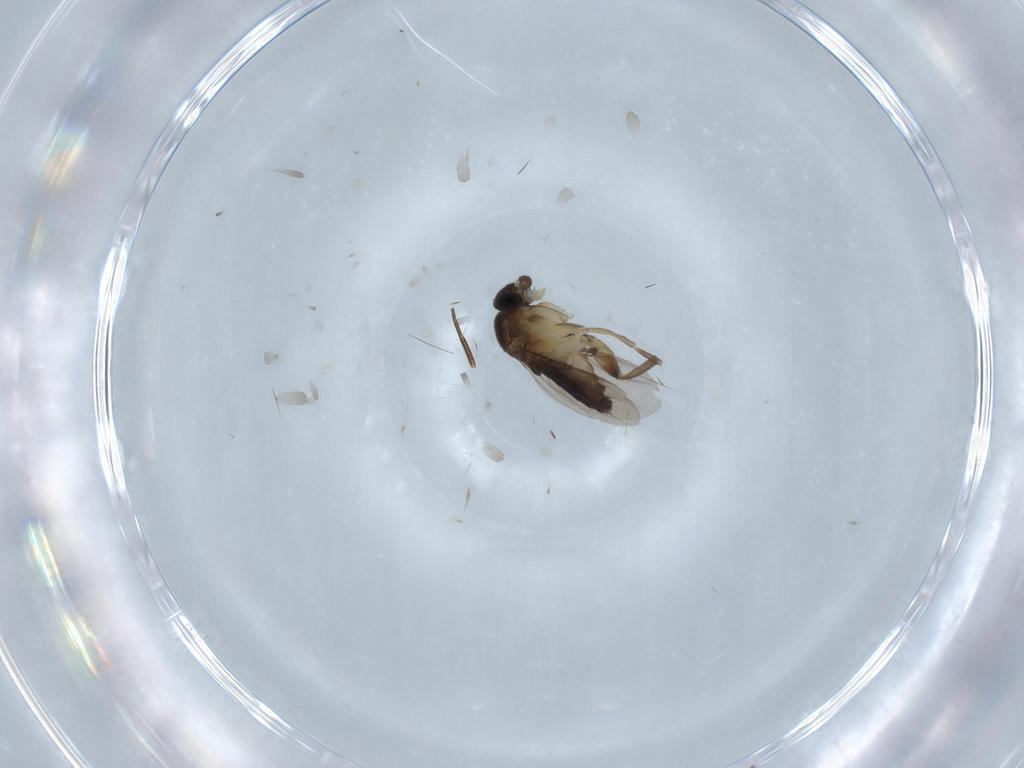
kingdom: Animalia
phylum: Arthropoda
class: Insecta
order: Diptera
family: Phoridae
